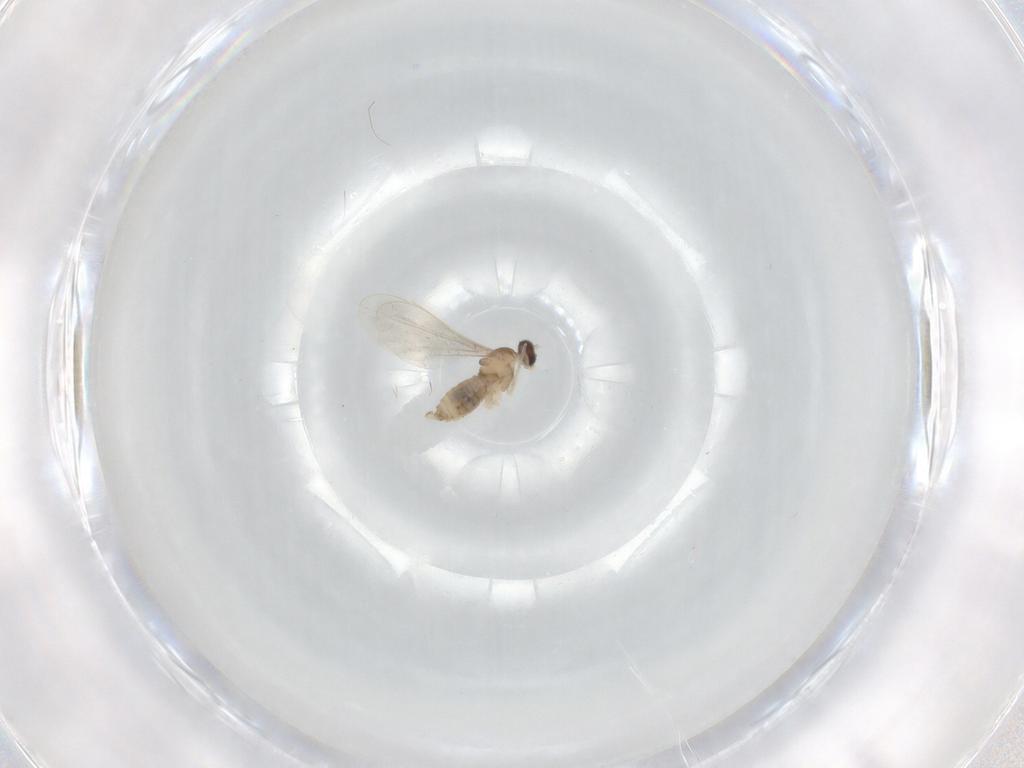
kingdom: Animalia
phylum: Arthropoda
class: Insecta
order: Diptera
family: Cecidomyiidae
